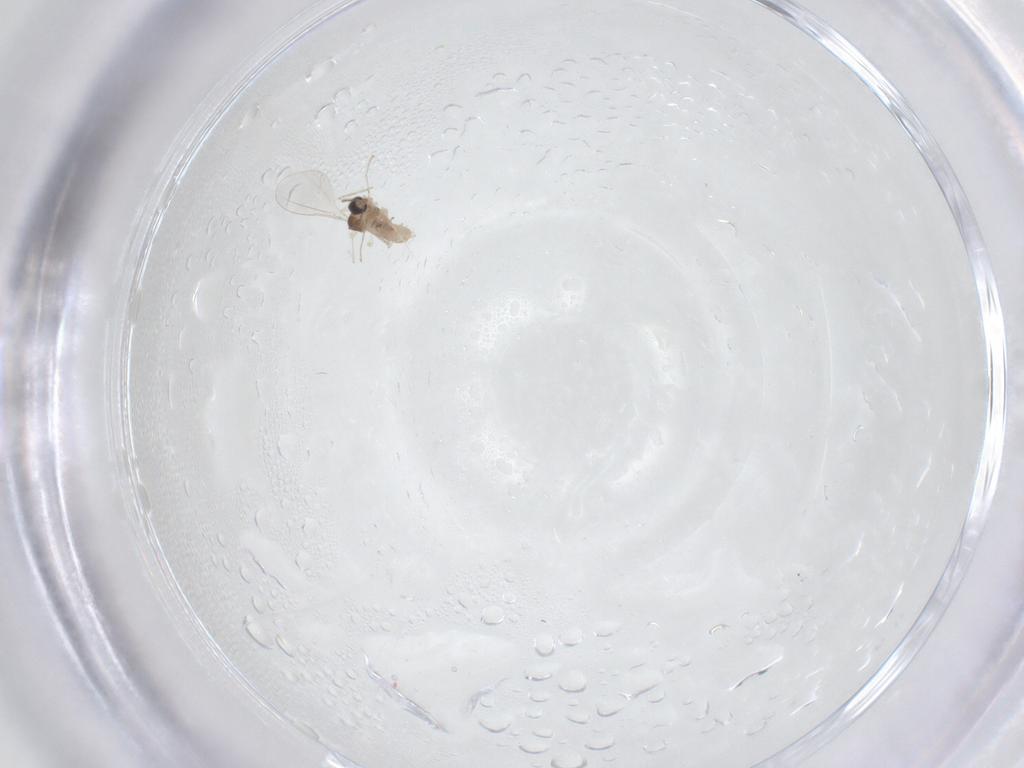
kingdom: Animalia
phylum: Arthropoda
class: Insecta
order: Diptera
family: Cecidomyiidae
